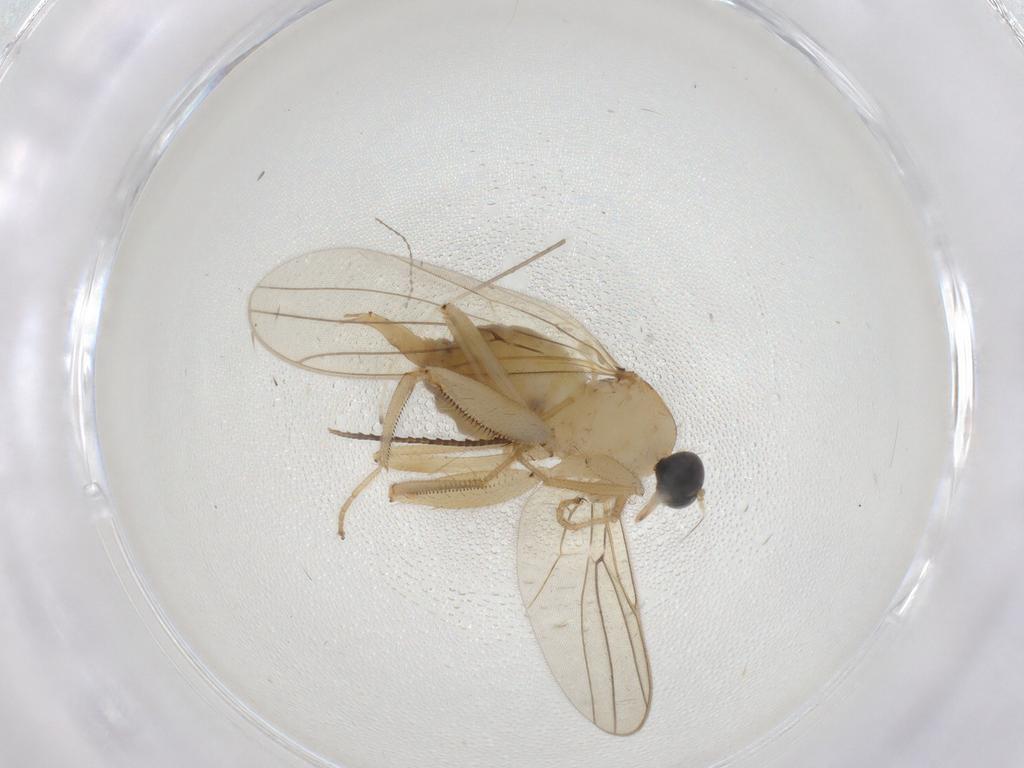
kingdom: Animalia
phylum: Arthropoda
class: Insecta
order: Diptera
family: Hybotidae
